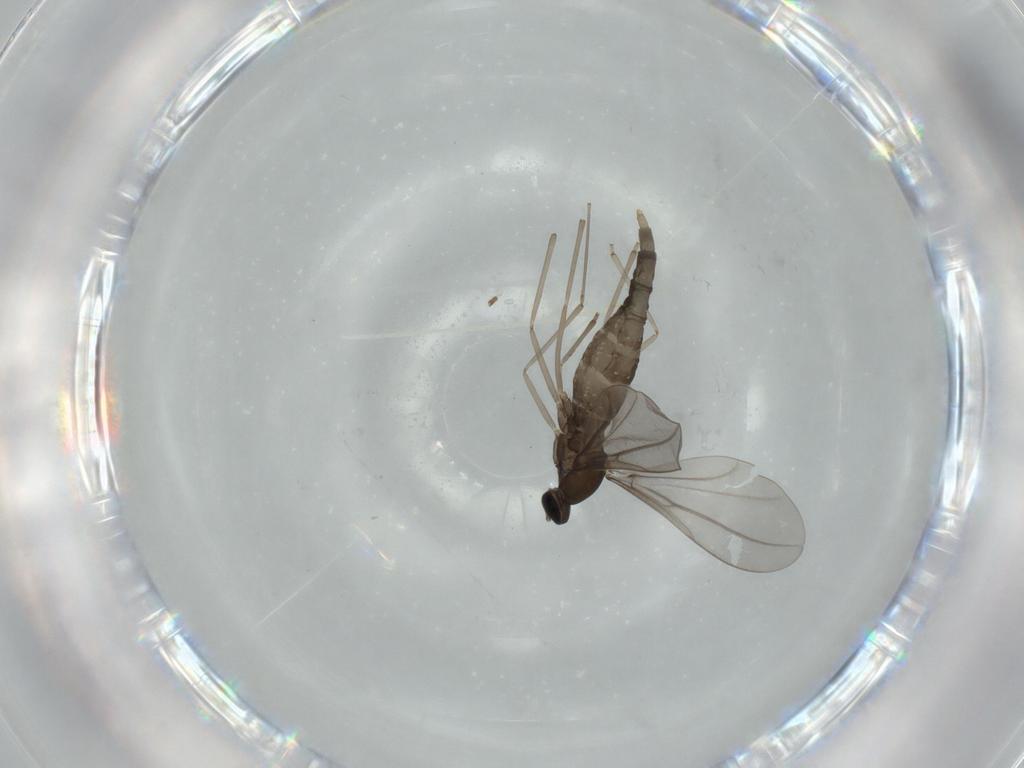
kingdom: Animalia
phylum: Arthropoda
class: Insecta
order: Diptera
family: Cecidomyiidae
